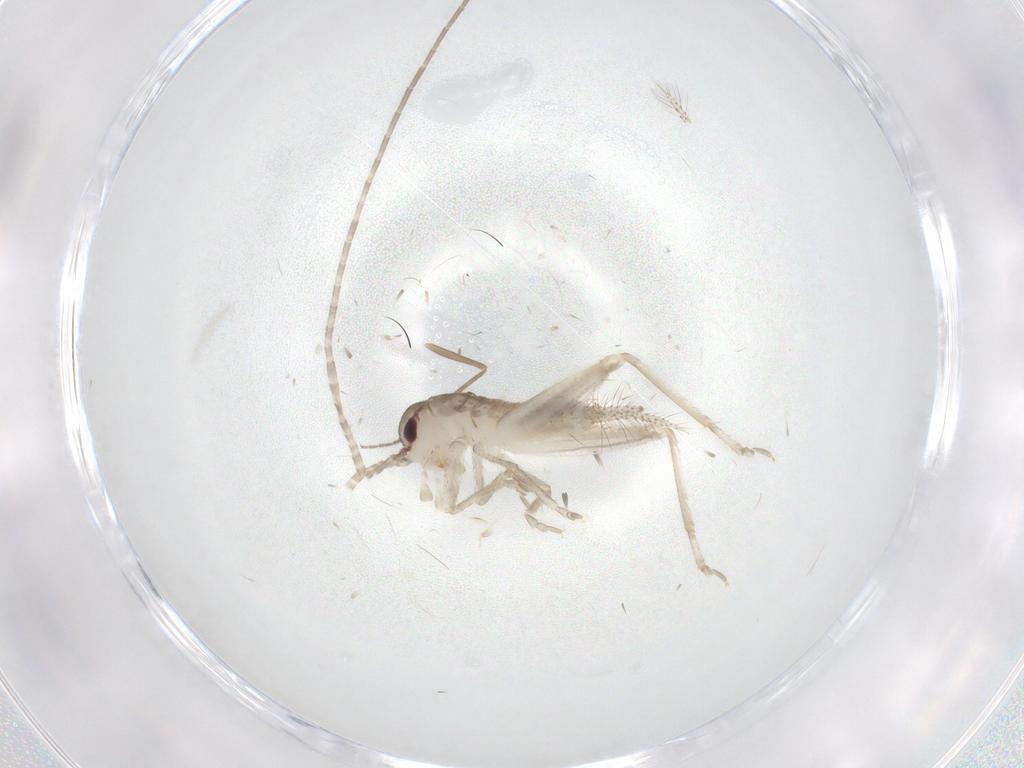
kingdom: Animalia
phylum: Arthropoda
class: Insecta
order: Orthoptera
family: Gryllidae
